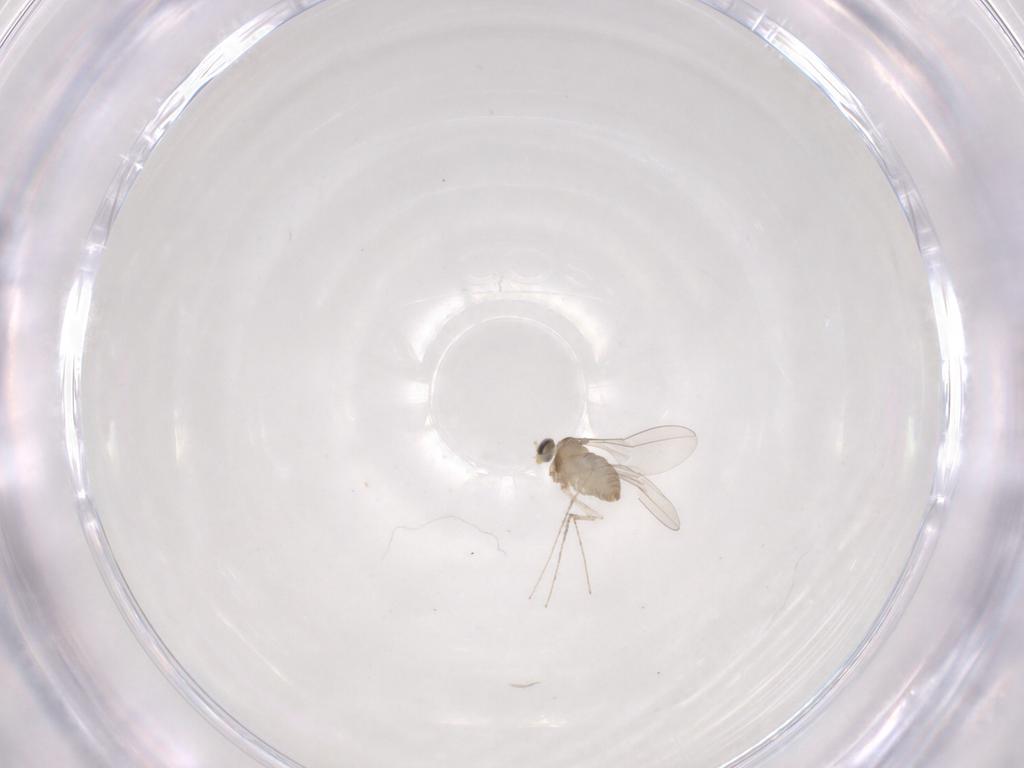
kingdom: Animalia
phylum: Arthropoda
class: Insecta
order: Diptera
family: Cecidomyiidae
